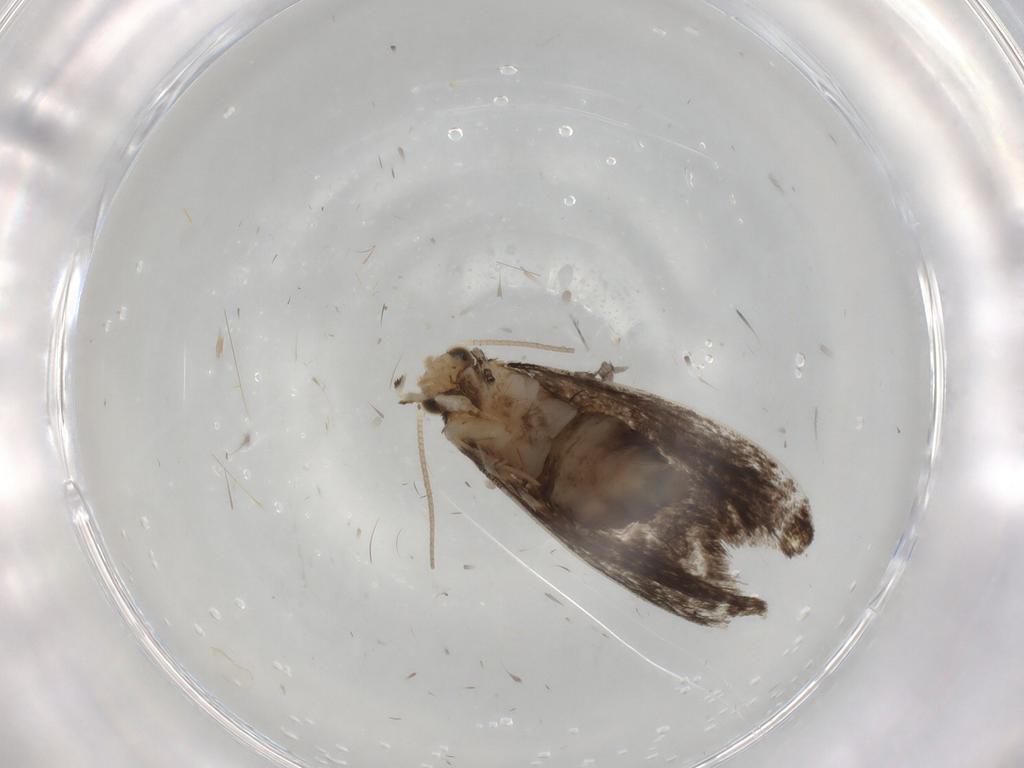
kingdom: Animalia
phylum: Arthropoda
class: Insecta
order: Lepidoptera
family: Dryadaulidae
